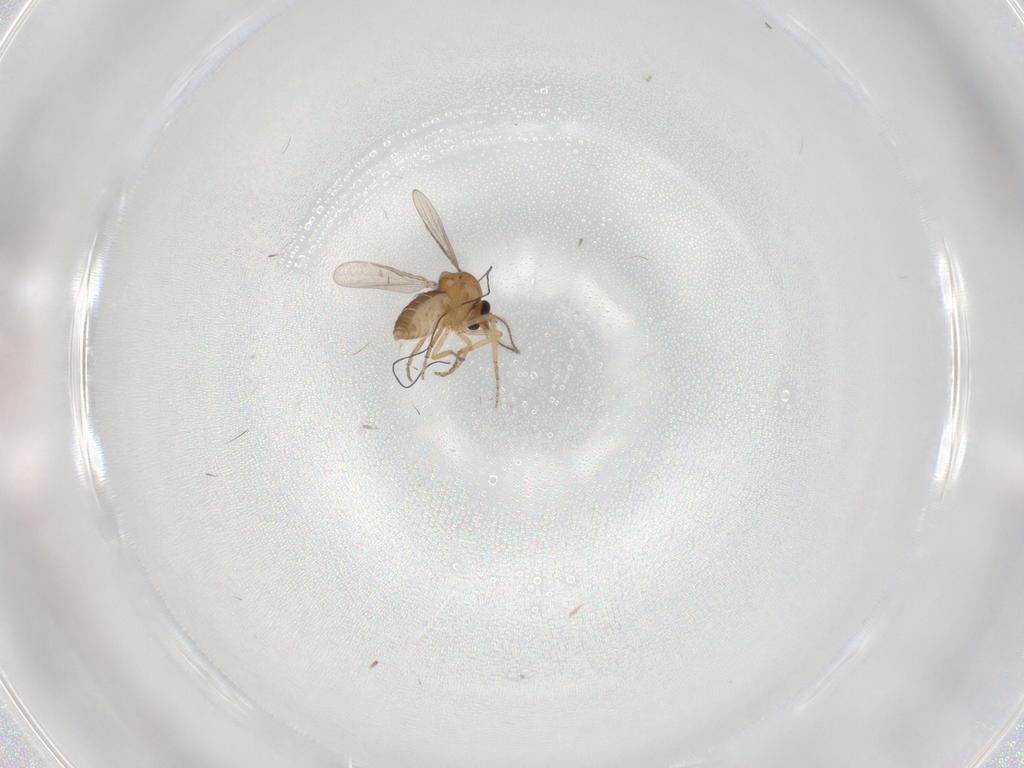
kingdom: Animalia
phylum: Arthropoda
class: Insecta
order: Diptera
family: Ceratopogonidae
